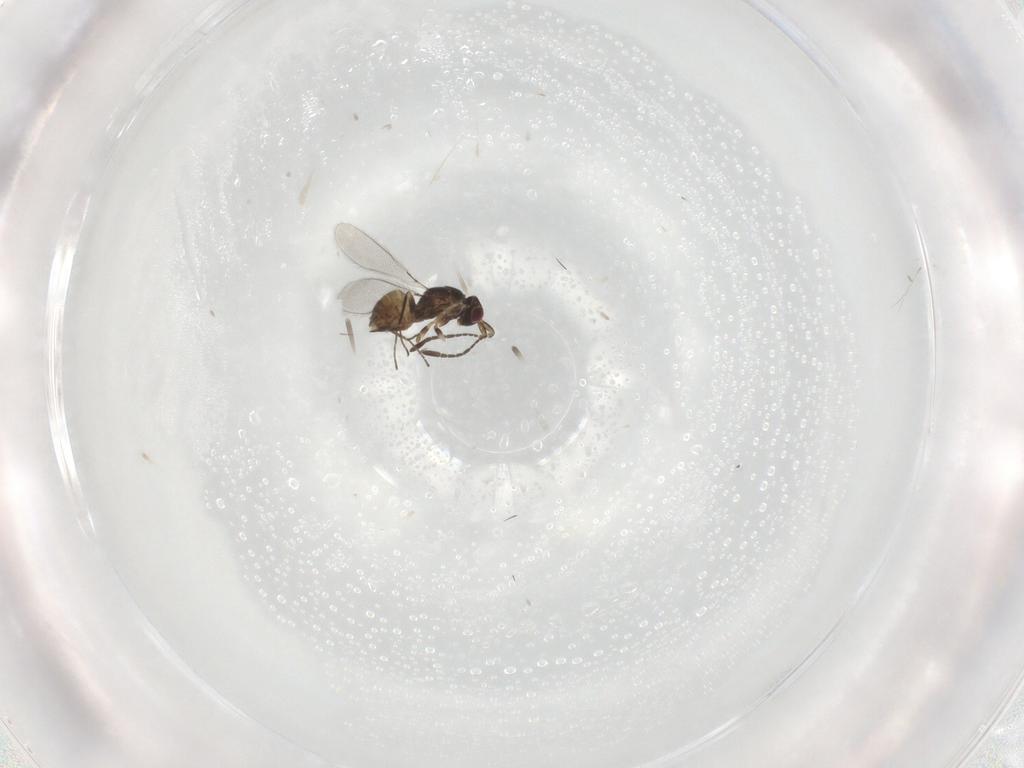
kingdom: Animalia
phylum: Arthropoda
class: Insecta
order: Hymenoptera
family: Mymaridae
